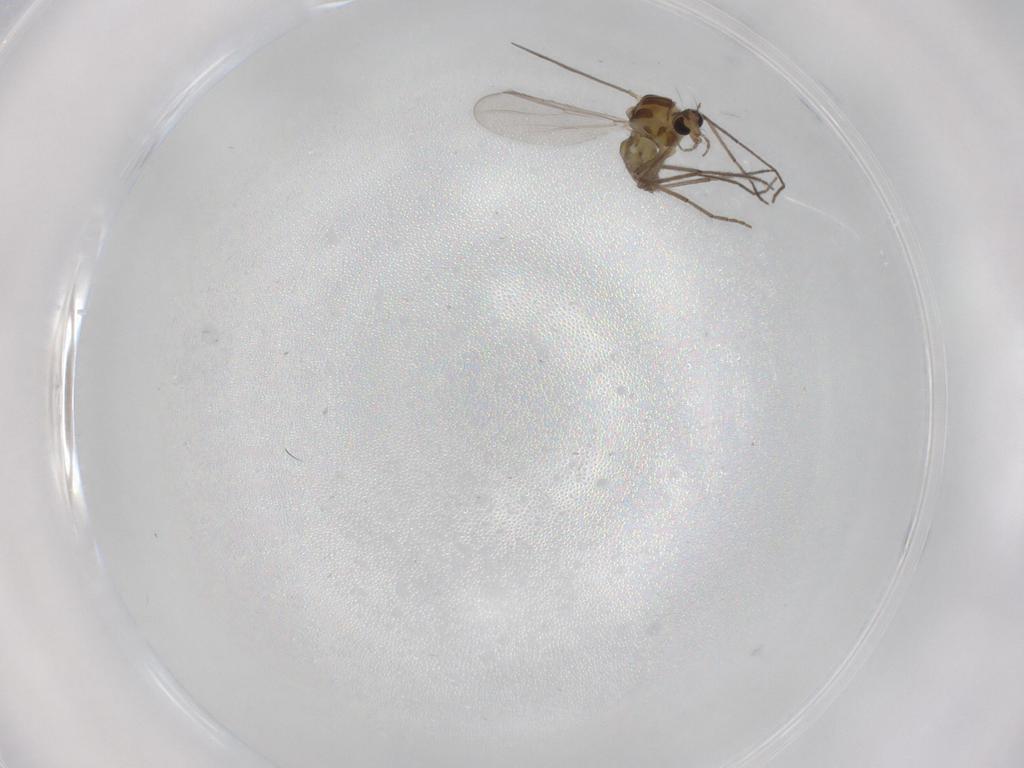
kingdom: Animalia
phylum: Arthropoda
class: Insecta
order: Diptera
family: Chironomidae
